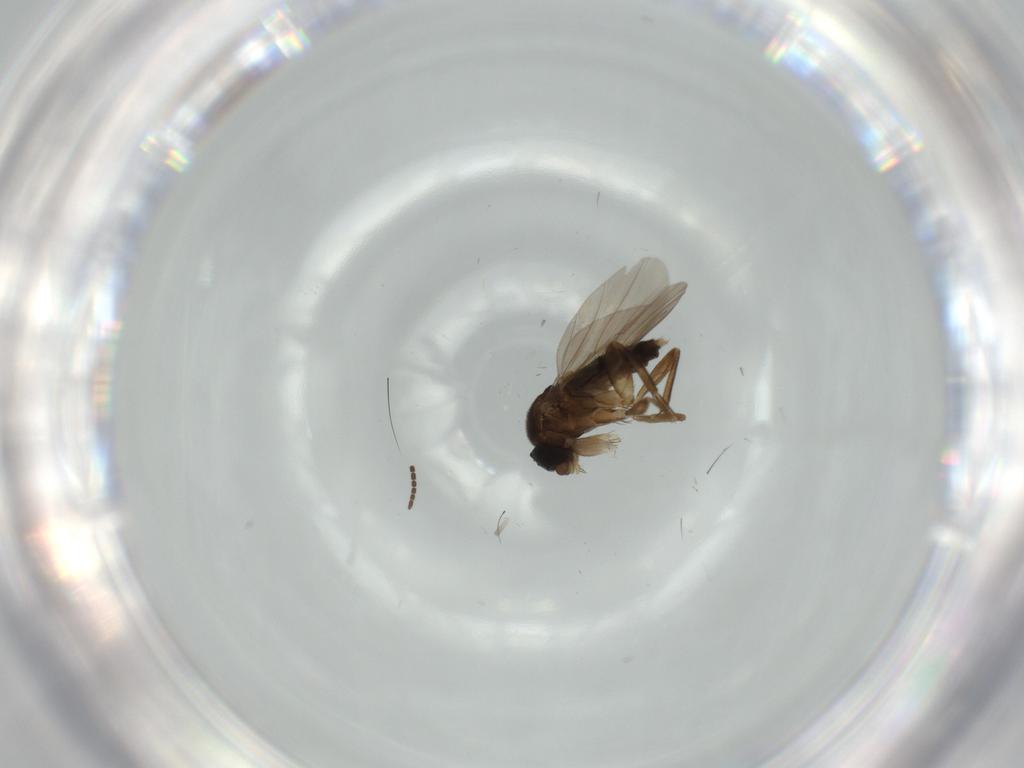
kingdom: Animalia
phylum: Arthropoda
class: Insecta
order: Diptera
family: Phoridae
